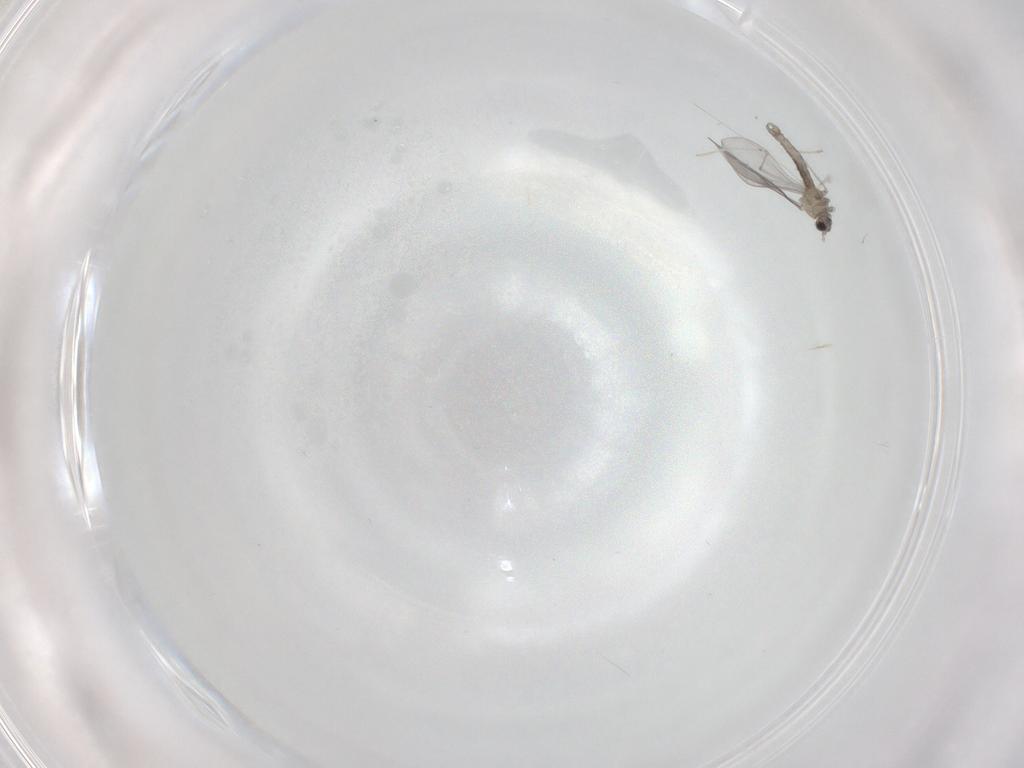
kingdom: Animalia
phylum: Arthropoda
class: Insecta
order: Diptera
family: Cecidomyiidae
